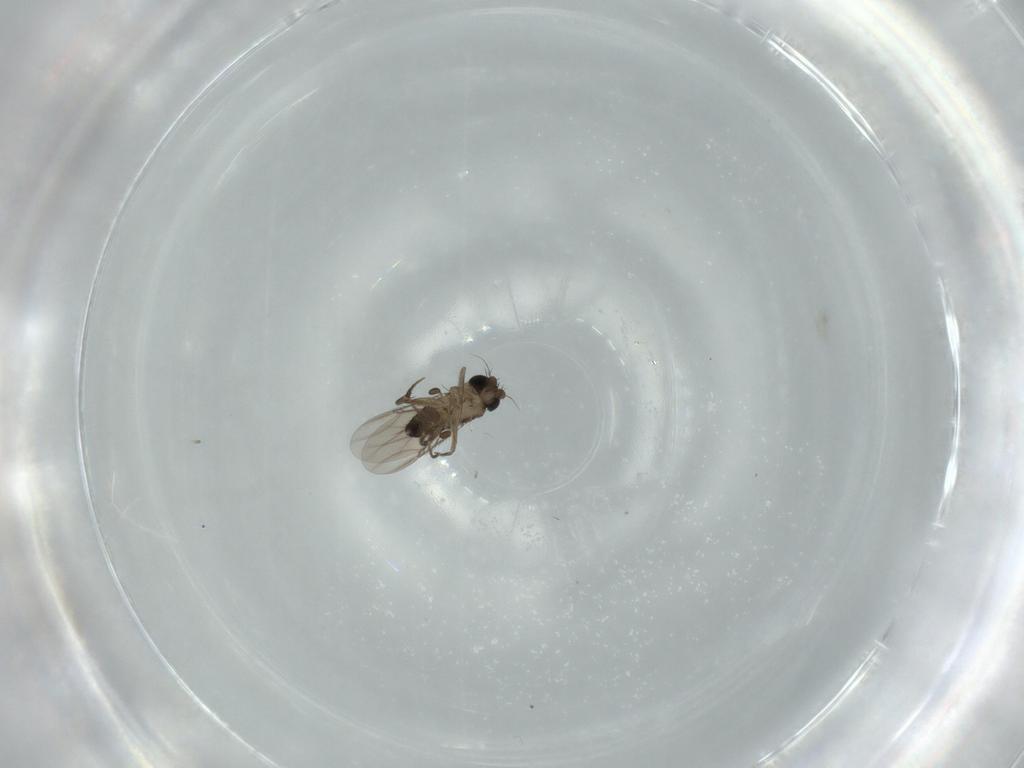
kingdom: Animalia
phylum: Arthropoda
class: Insecta
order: Diptera
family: Phoridae
